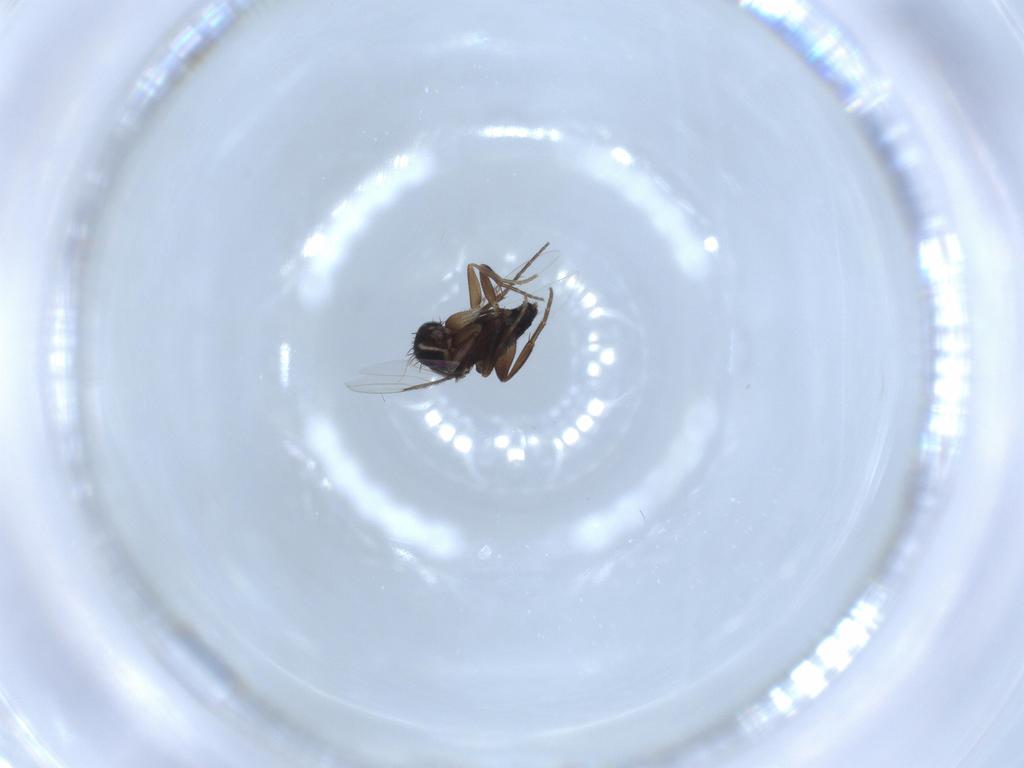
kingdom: Animalia
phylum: Arthropoda
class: Insecta
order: Diptera
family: Phoridae
